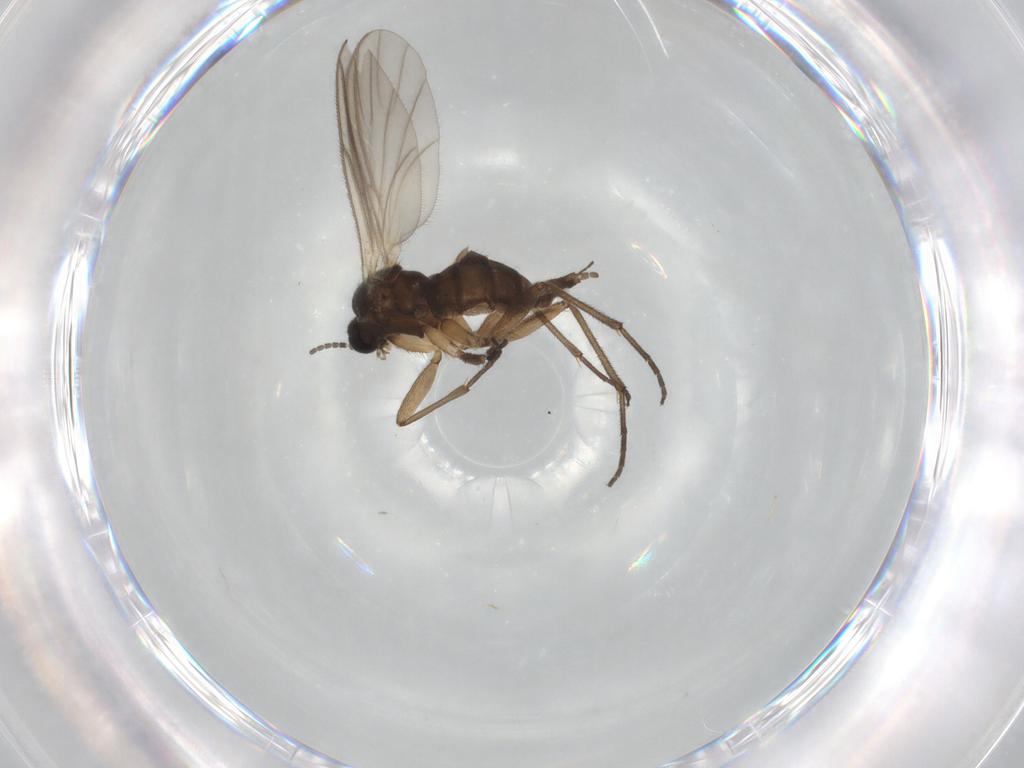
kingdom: Animalia
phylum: Arthropoda
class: Insecta
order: Diptera
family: Sciaridae
